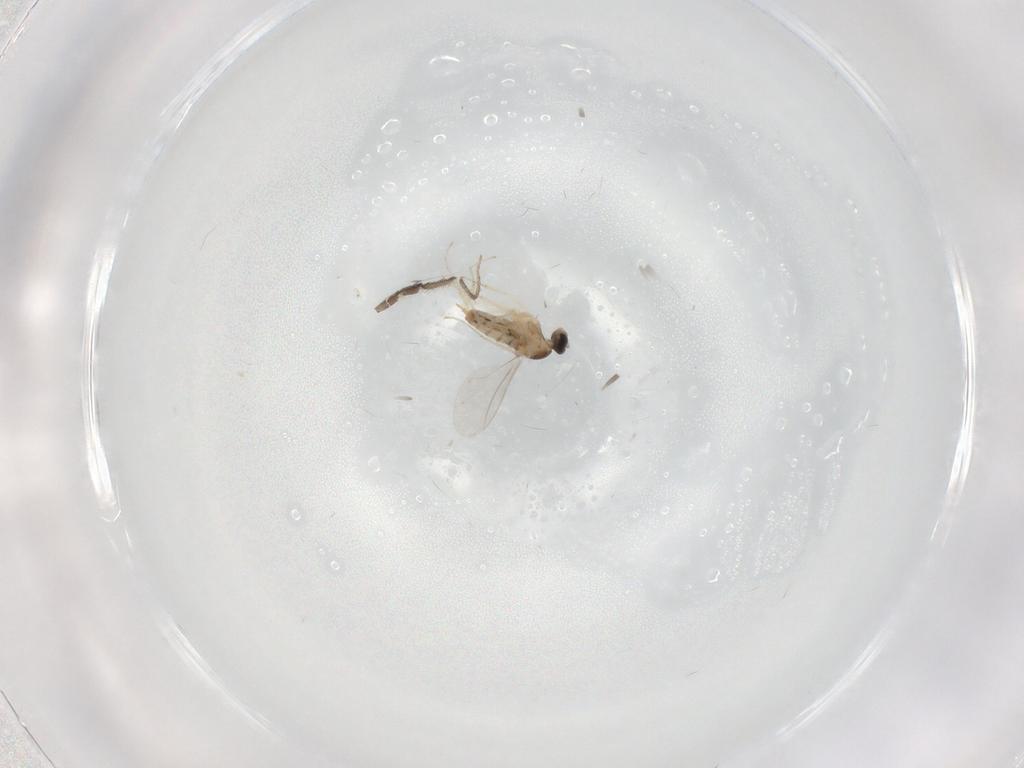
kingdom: Animalia
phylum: Arthropoda
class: Insecta
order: Diptera
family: Cecidomyiidae
